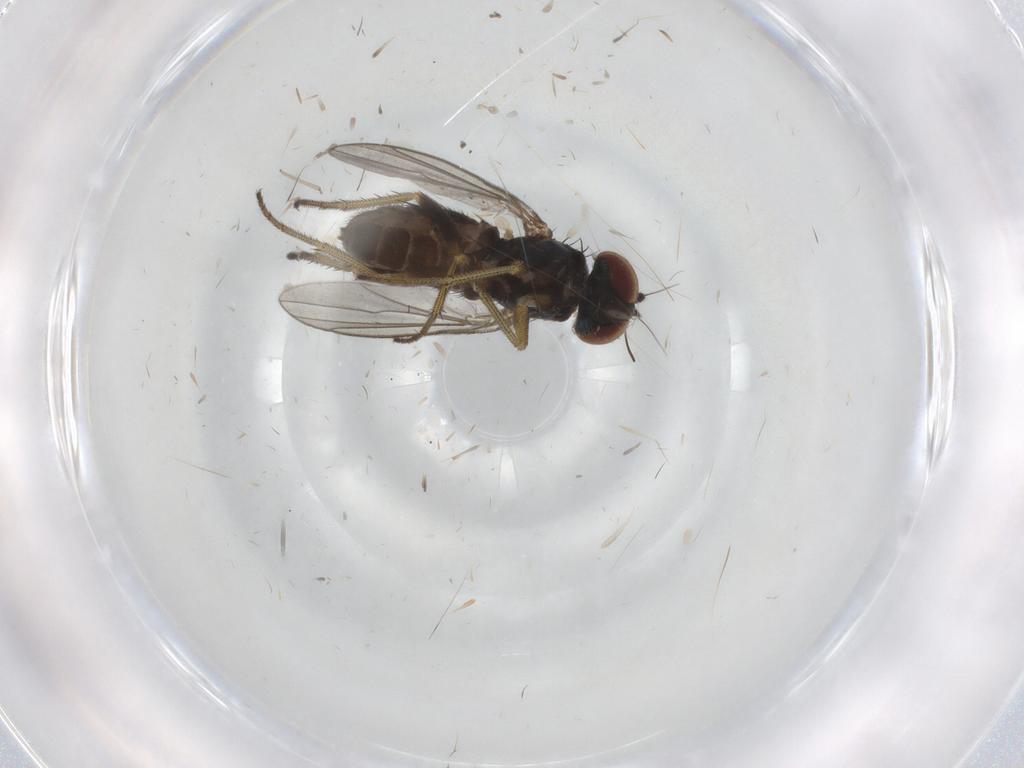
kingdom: Animalia
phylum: Arthropoda
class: Insecta
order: Diptera
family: Dolichopodidae
